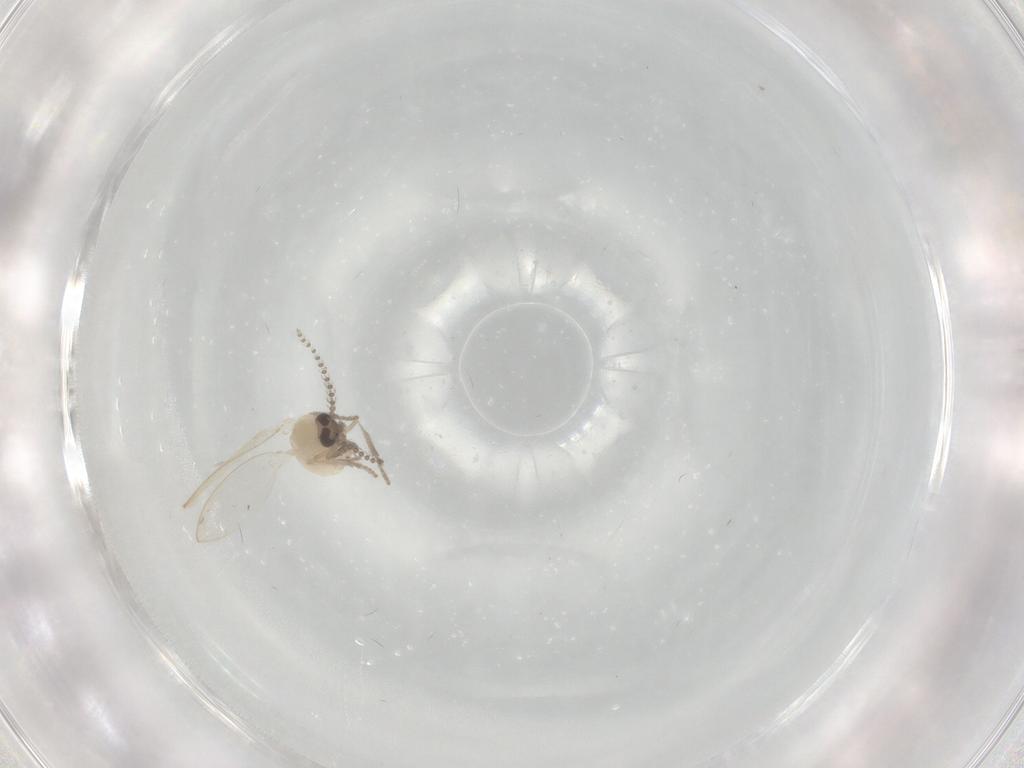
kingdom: Animalia
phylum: Arthropoda
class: Insecta
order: Diptera
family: Psychodidae
